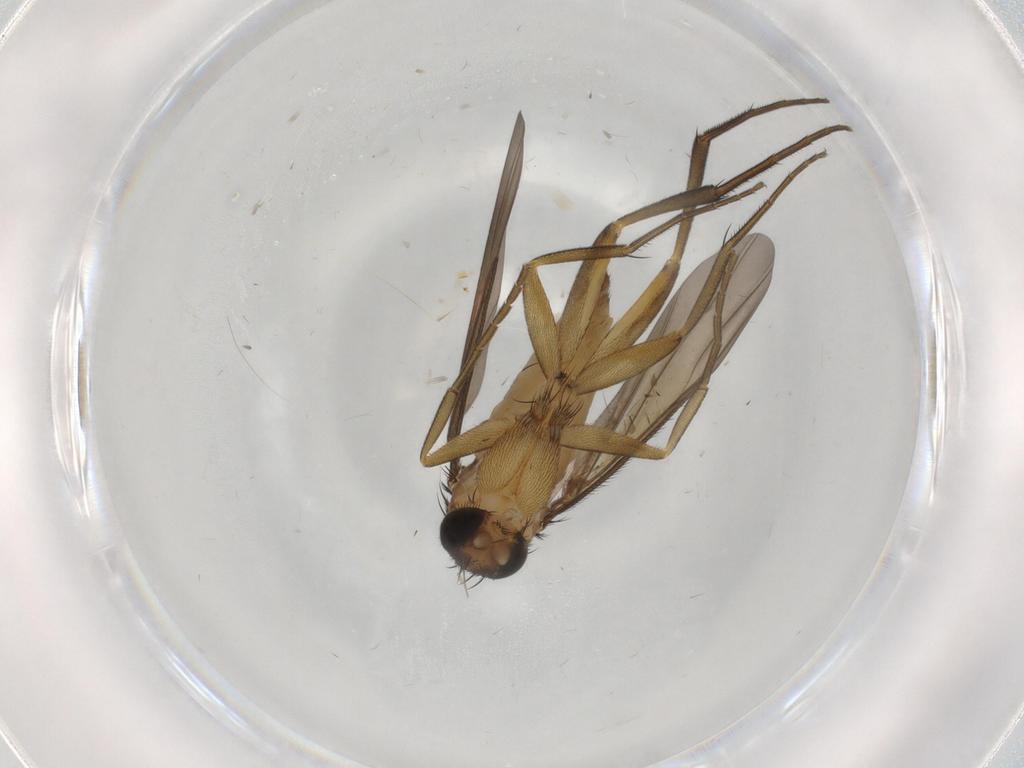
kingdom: Animalia
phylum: Arthropoda
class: Insecta
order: Diptera
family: Phoridae
